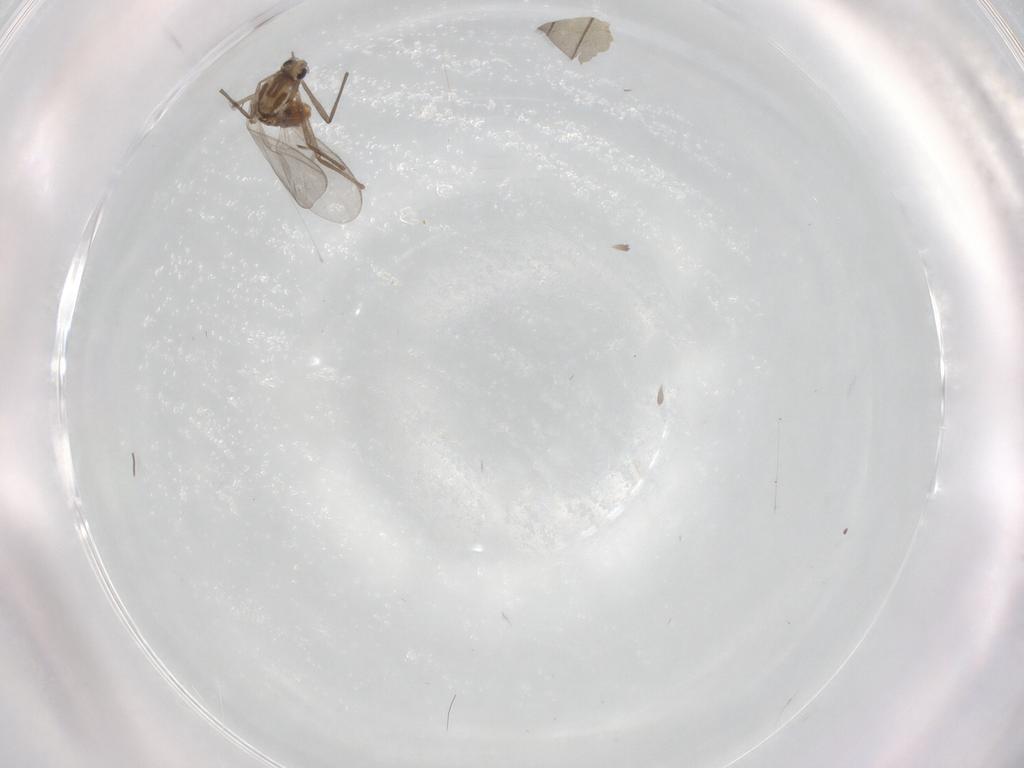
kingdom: Animalia
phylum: Arthropoda
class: Insecta
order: Diptera
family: Chironomidae
